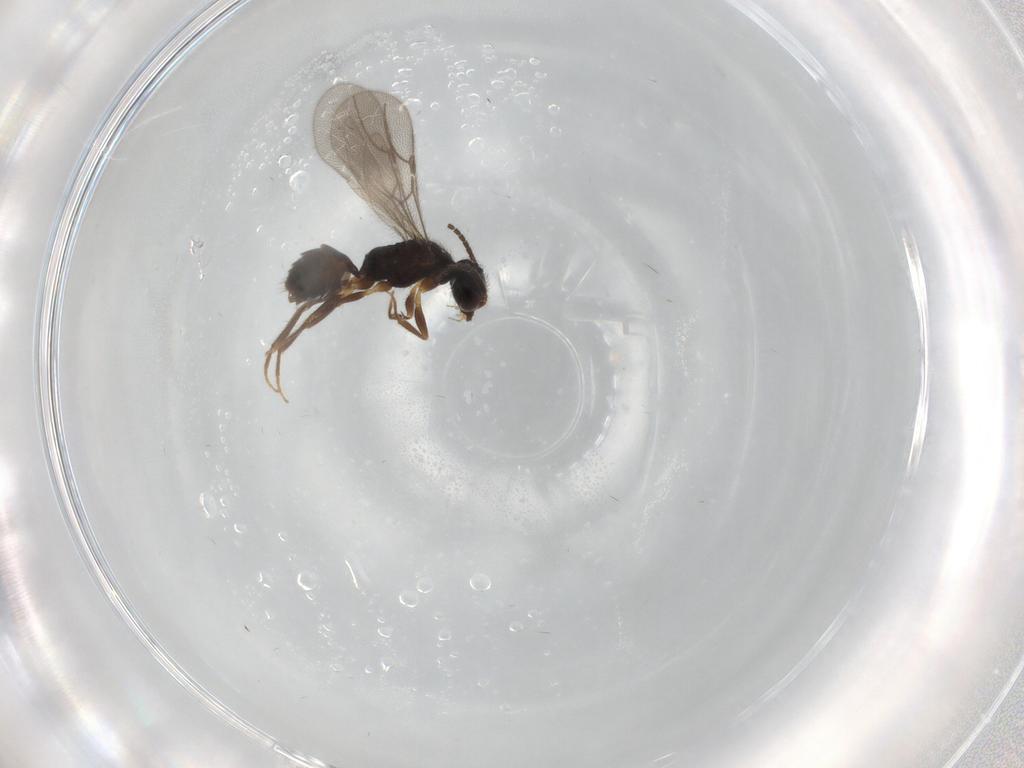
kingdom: Animalia
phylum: Arthropoda
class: Insecta
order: Hymenoptera
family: Bethylidae
